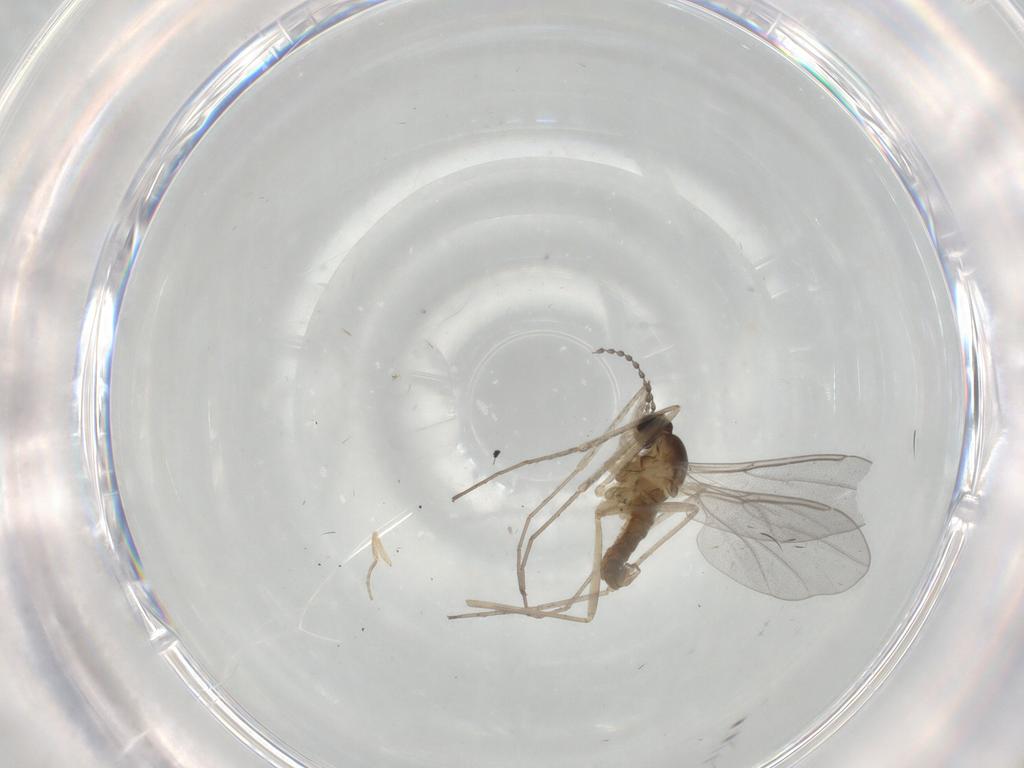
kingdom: Animalia
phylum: Arthropoda
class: Insecta
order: Diptera
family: Cecidomyiidae
